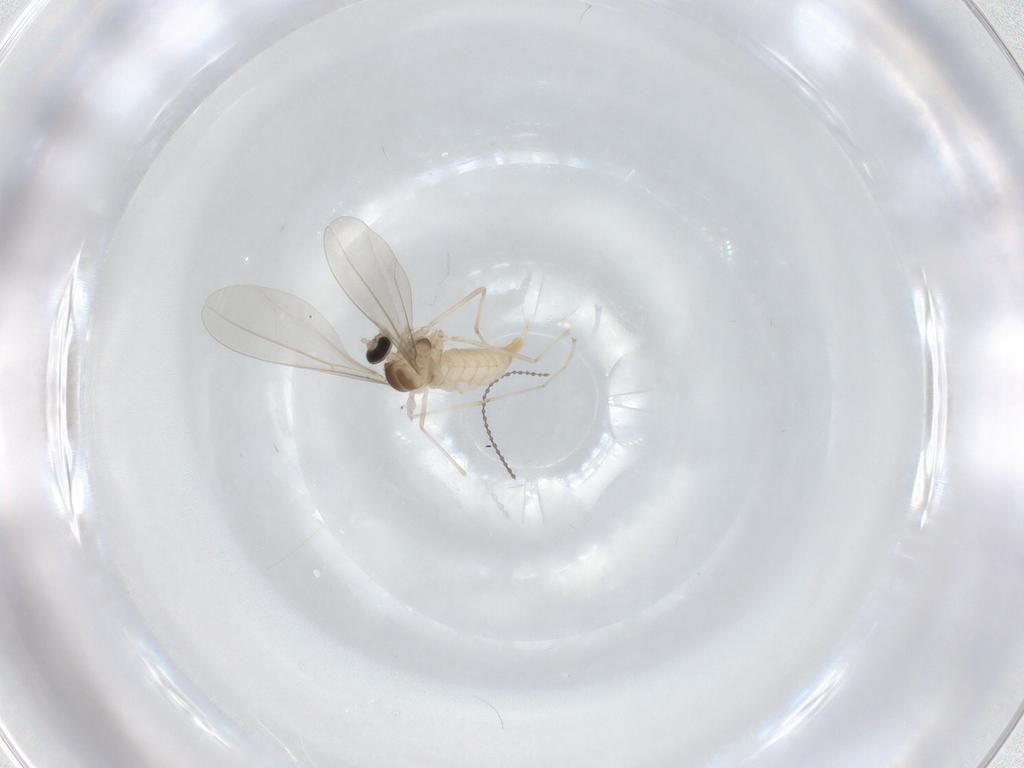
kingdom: Animalia
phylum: Arthropoda
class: Insecta
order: Diptera
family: Cecidomyiidae
